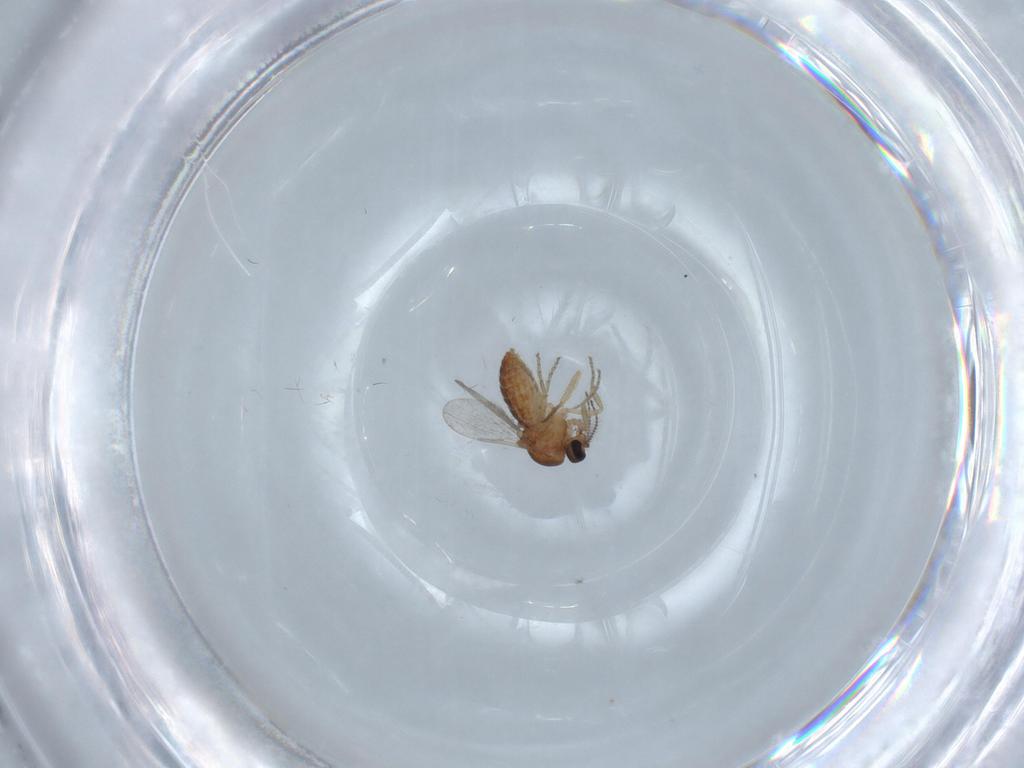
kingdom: Animalia
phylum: Arthropoda
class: Insecta
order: Diptera
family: Ceratopogonidae
